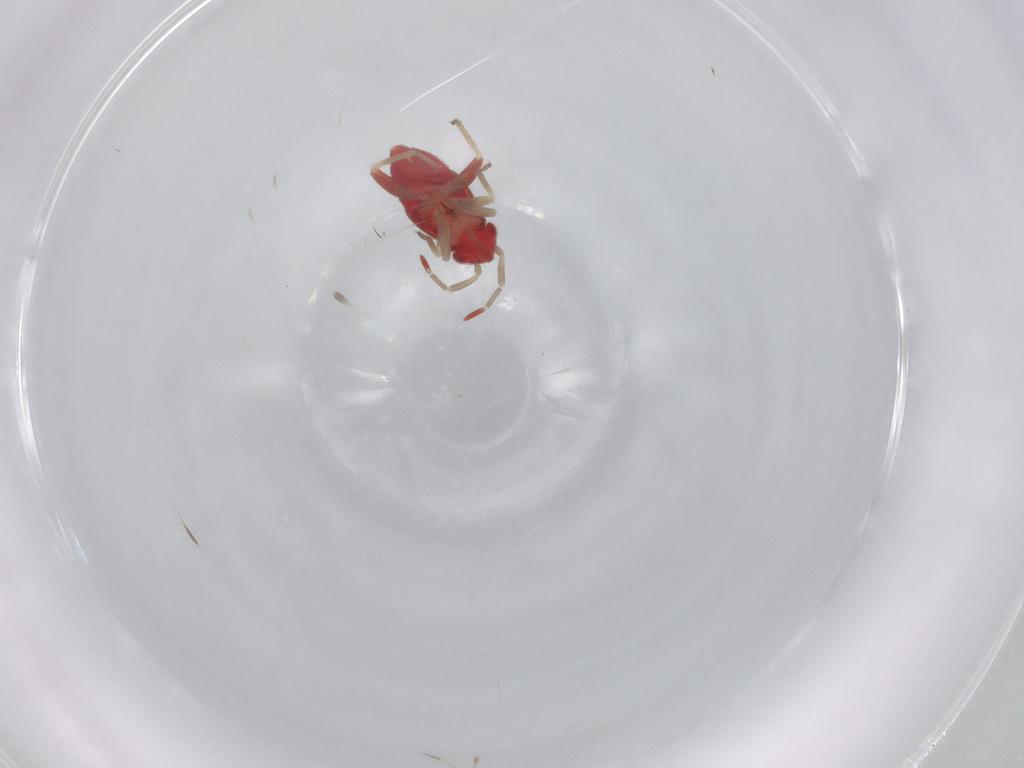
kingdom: Animalia
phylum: Arthropoda
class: Insecta
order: Hemiptera
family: Miridae
